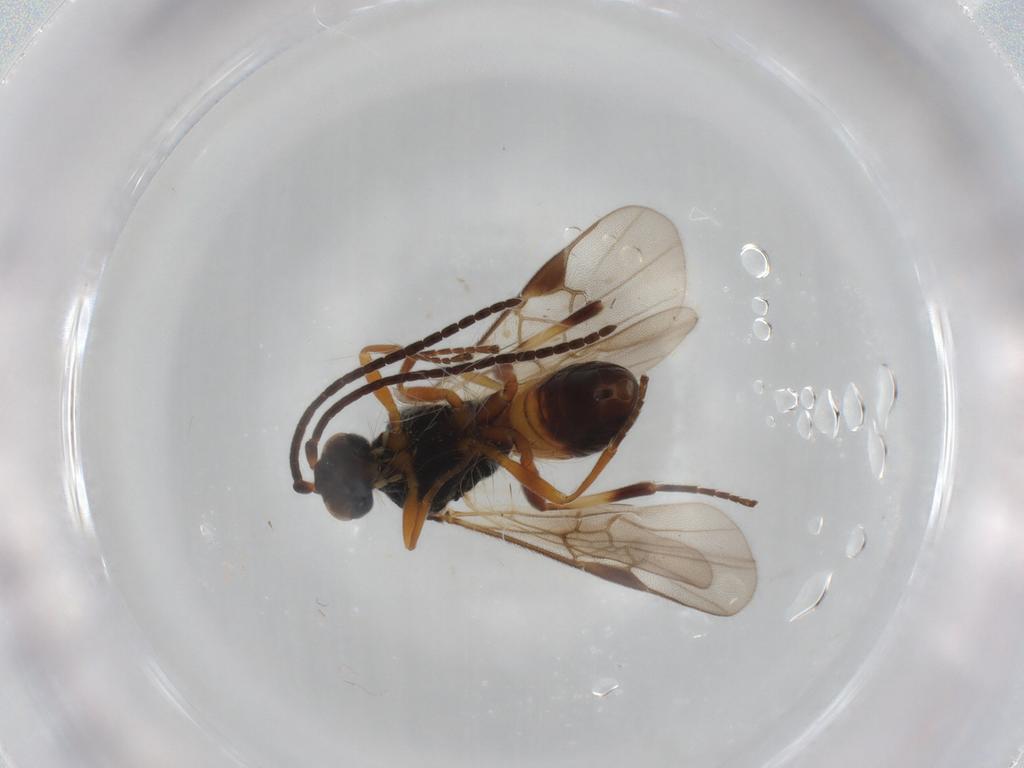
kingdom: Animalia
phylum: Arthropoda
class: Insecta
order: Hymenoptera
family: Braconidae
